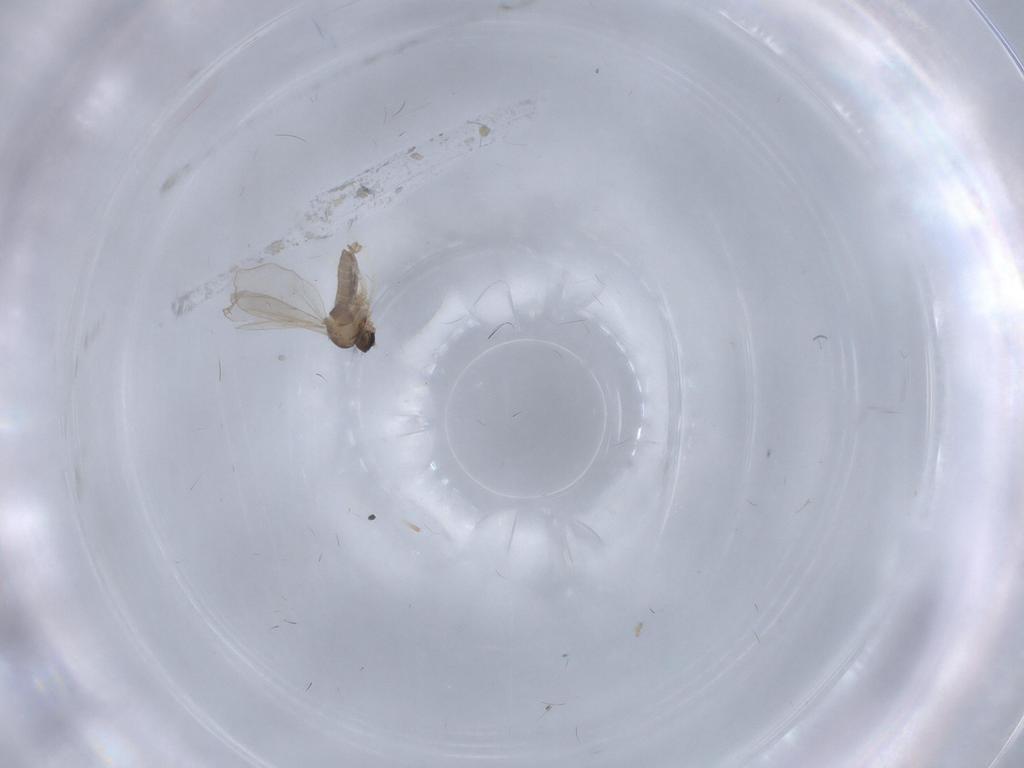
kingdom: Animalia
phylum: Arthropoda
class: Insecta
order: Diptera
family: Cecidomyiidae
